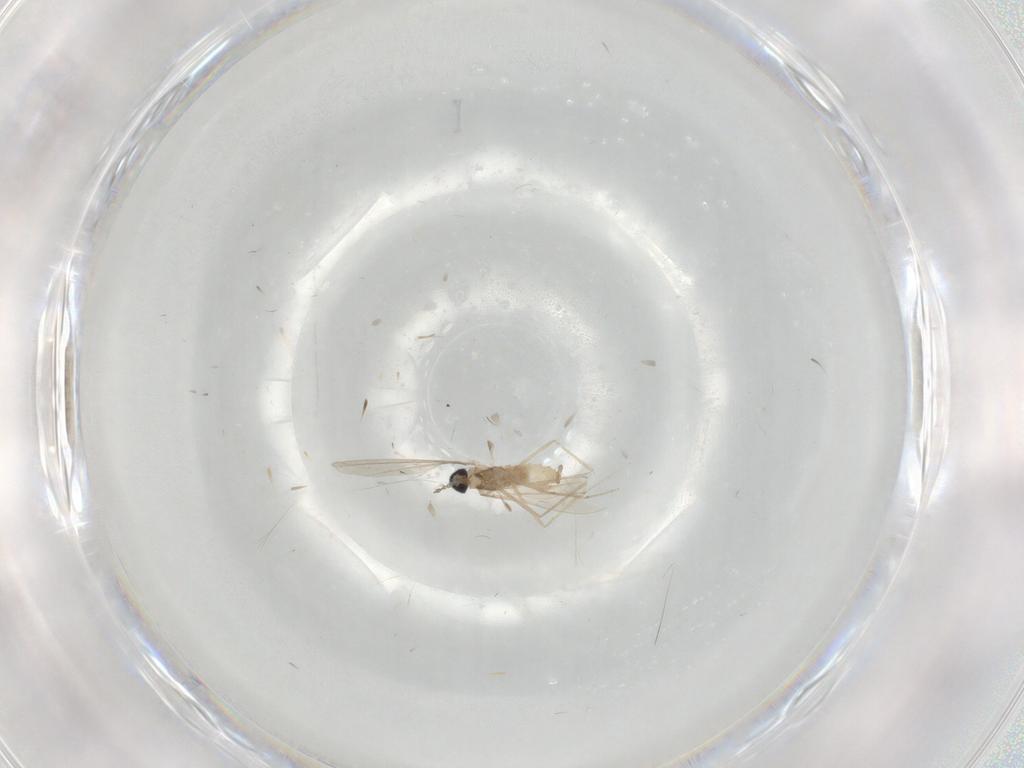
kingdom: Animalia
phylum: Arthropoda
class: Insecta
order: Diptera
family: Cecidomyiidae
